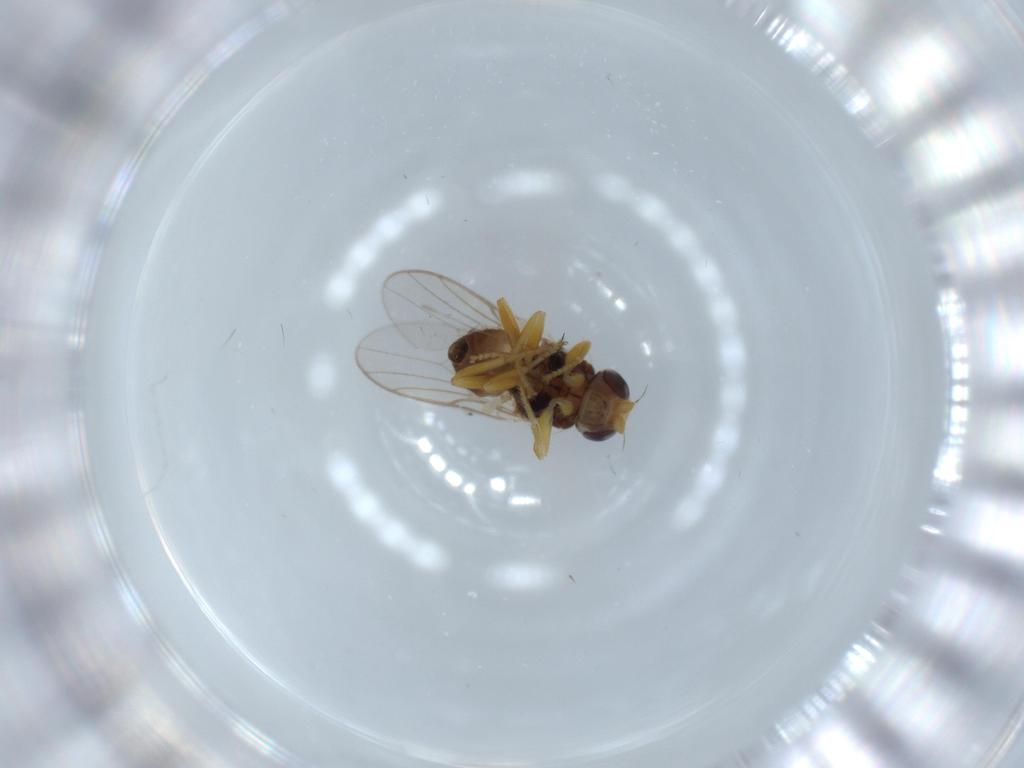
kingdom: Animalia
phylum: Arthropoda
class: Insecta
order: Diptera
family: Chloropidae
